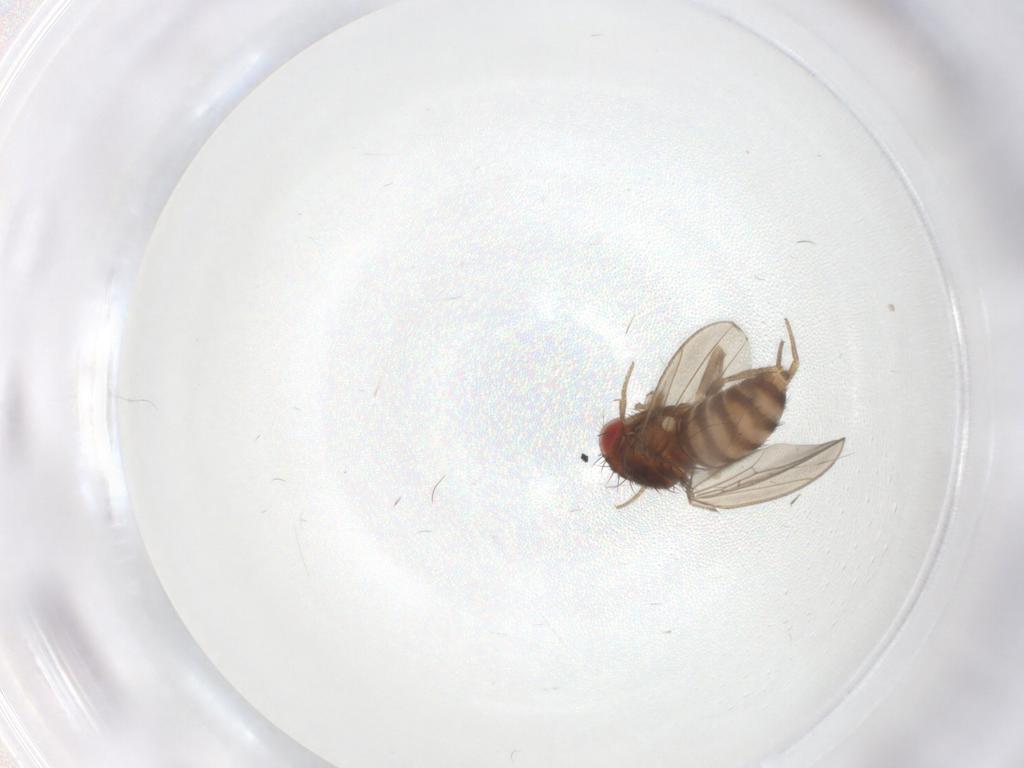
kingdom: Animalia
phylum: Arthropoda
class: Insecta
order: Diptera
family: Drosophilidae
